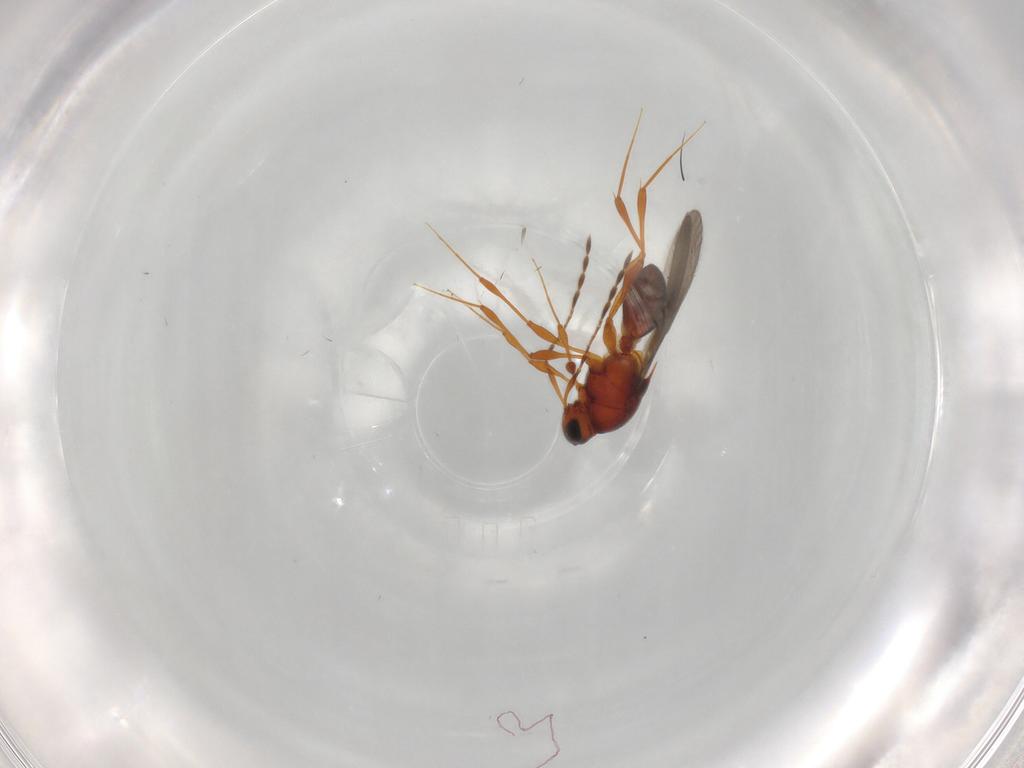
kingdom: Animalia
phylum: Arthropoda
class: Insecta
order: Hymenoptera
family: Platygastridae
